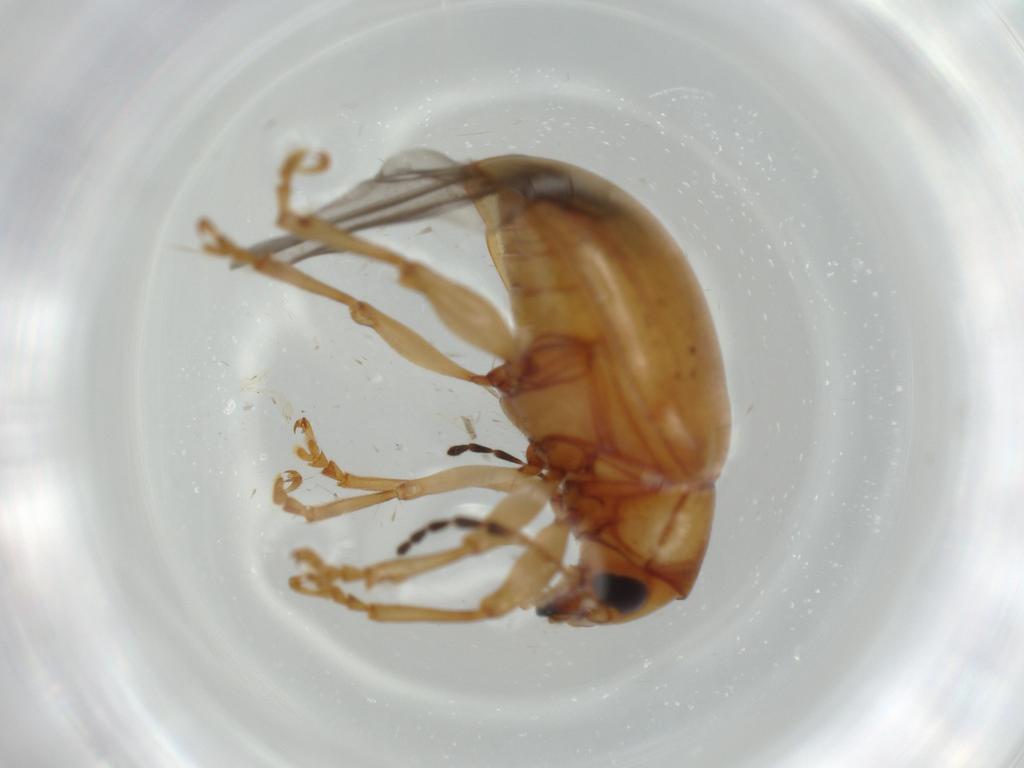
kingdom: Animalia
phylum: Arthropoda
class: Insecta
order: Coleoptera
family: Chrysomelidae
